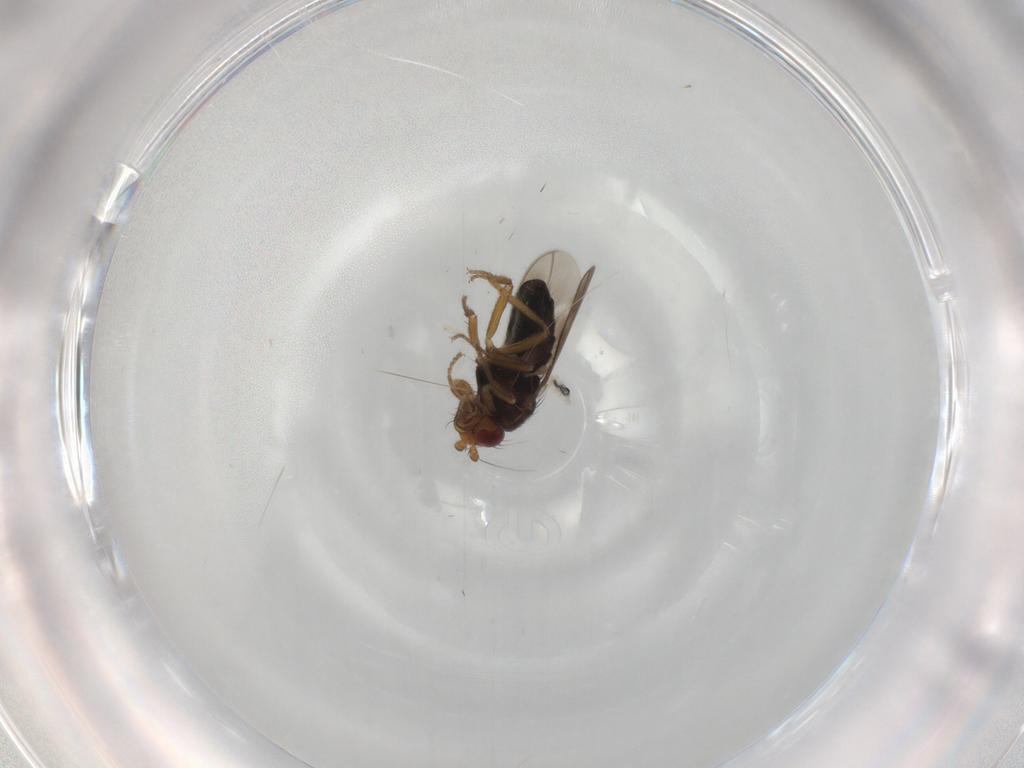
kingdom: Animalia
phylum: Arthropoda
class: Insecta
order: Diptera
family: Sphaeroceridae
